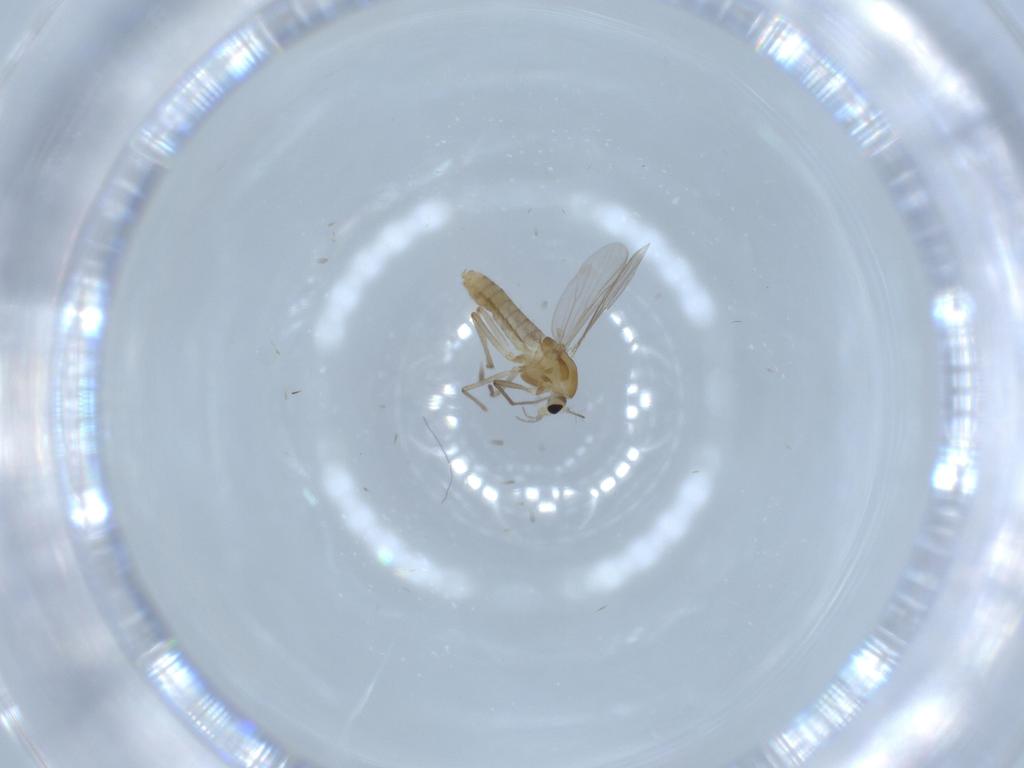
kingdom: Animalia
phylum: Arthropoda
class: Insecta
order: Diptera
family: Chironomidae
